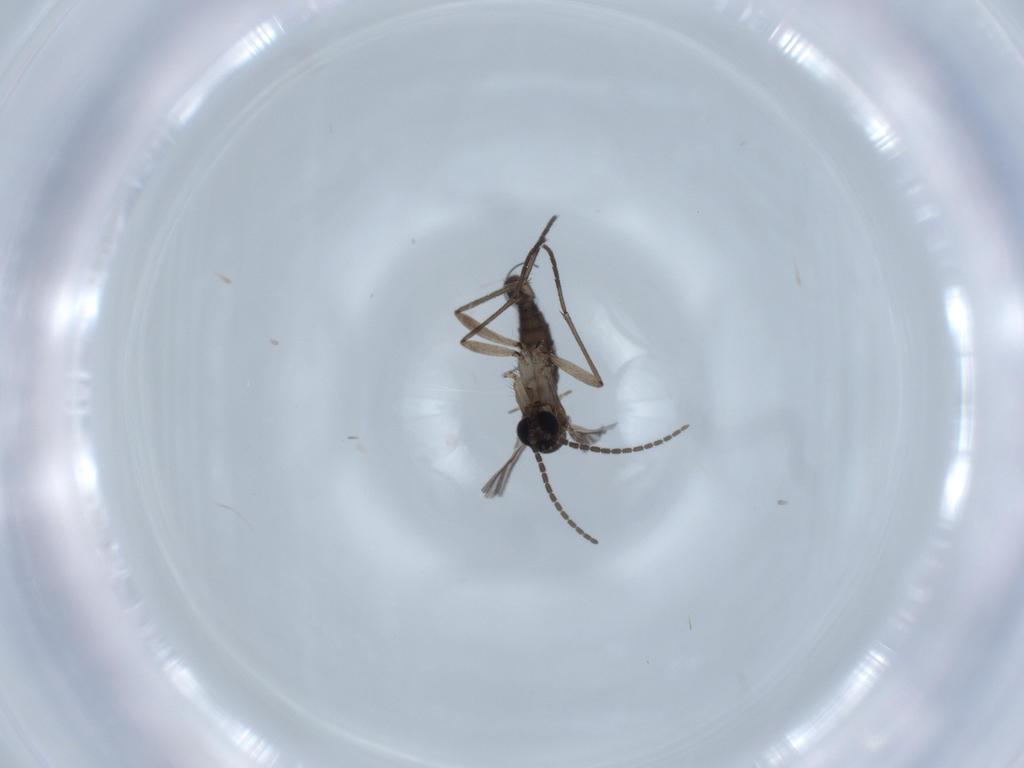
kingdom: Animalia
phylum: Arthropoda
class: Insecta
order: Diptera
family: Sciaridae
